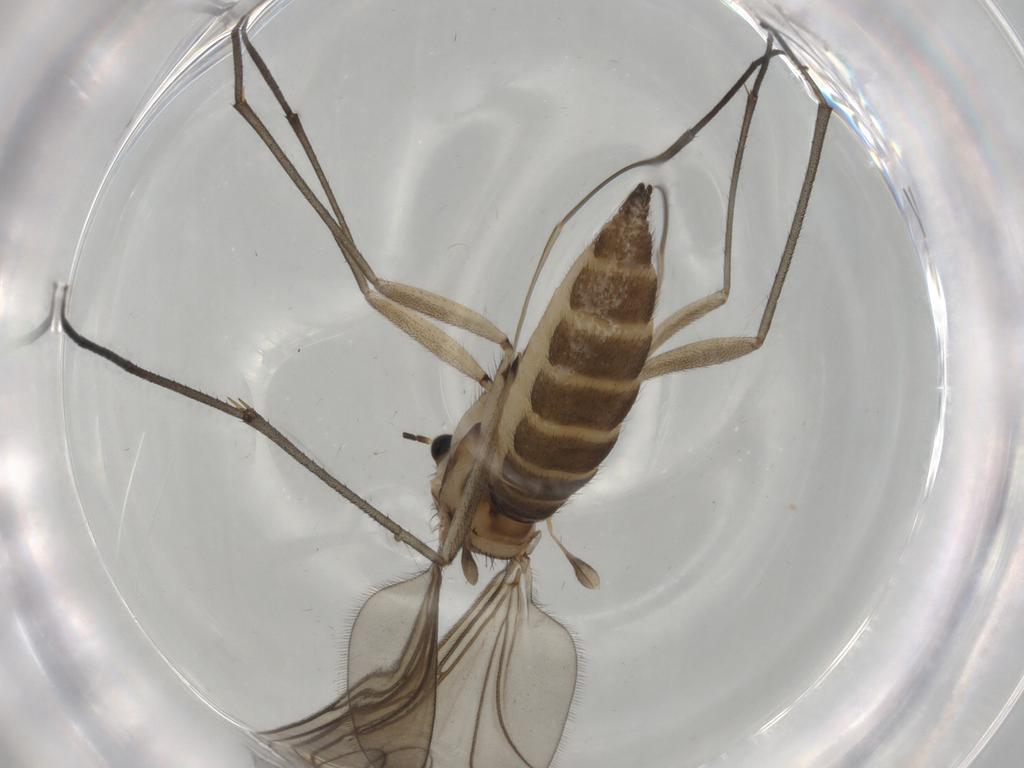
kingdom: Animalia
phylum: Arthropoda
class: Insecta
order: Diptera
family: Sciaridae
